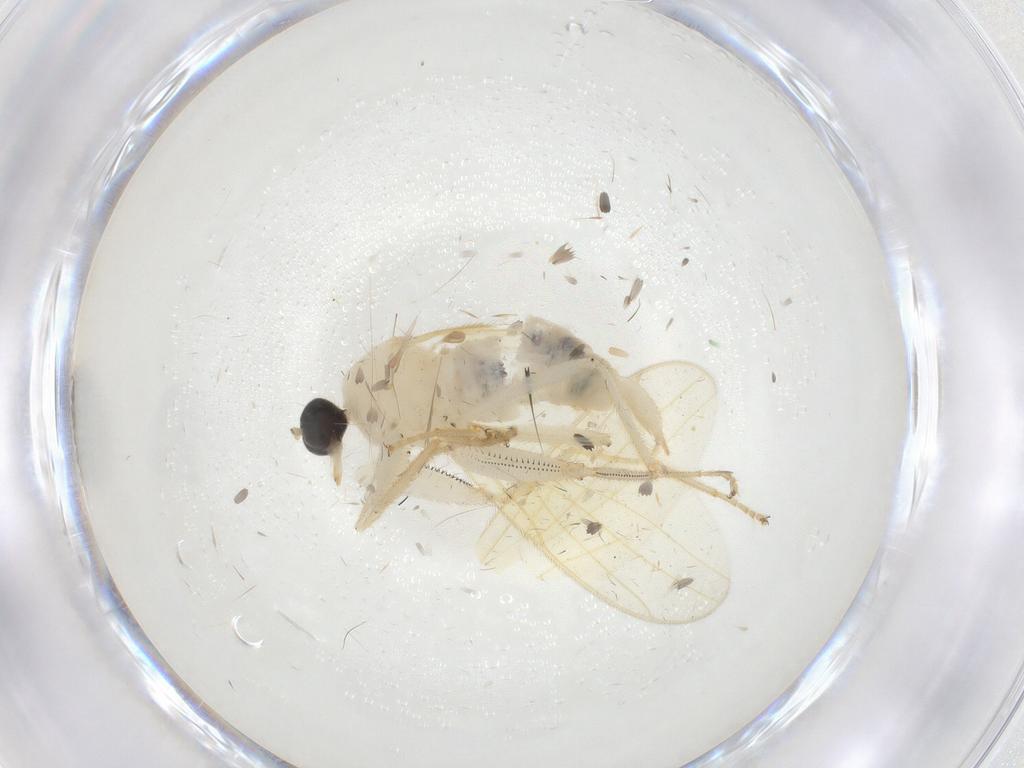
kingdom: Animalia
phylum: Arthropoda
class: Insecta
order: Diptera
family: Hybotidae
